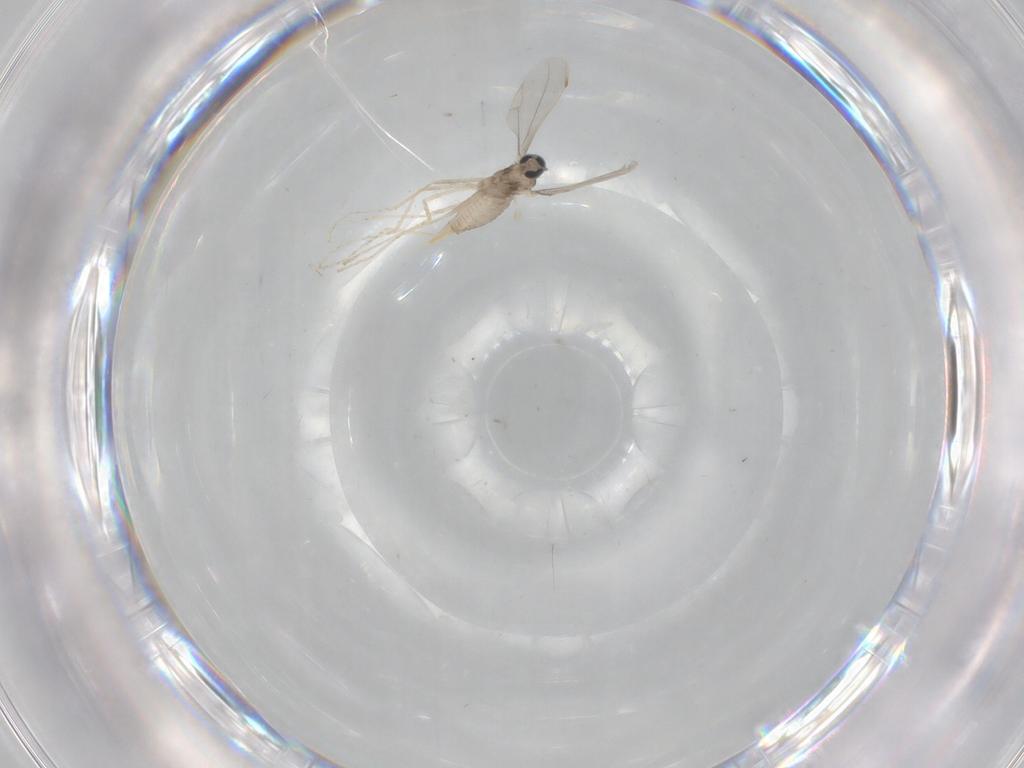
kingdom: Animalia
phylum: Arthropoda
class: Insecta
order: Diptera
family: Cecidomyiidae
